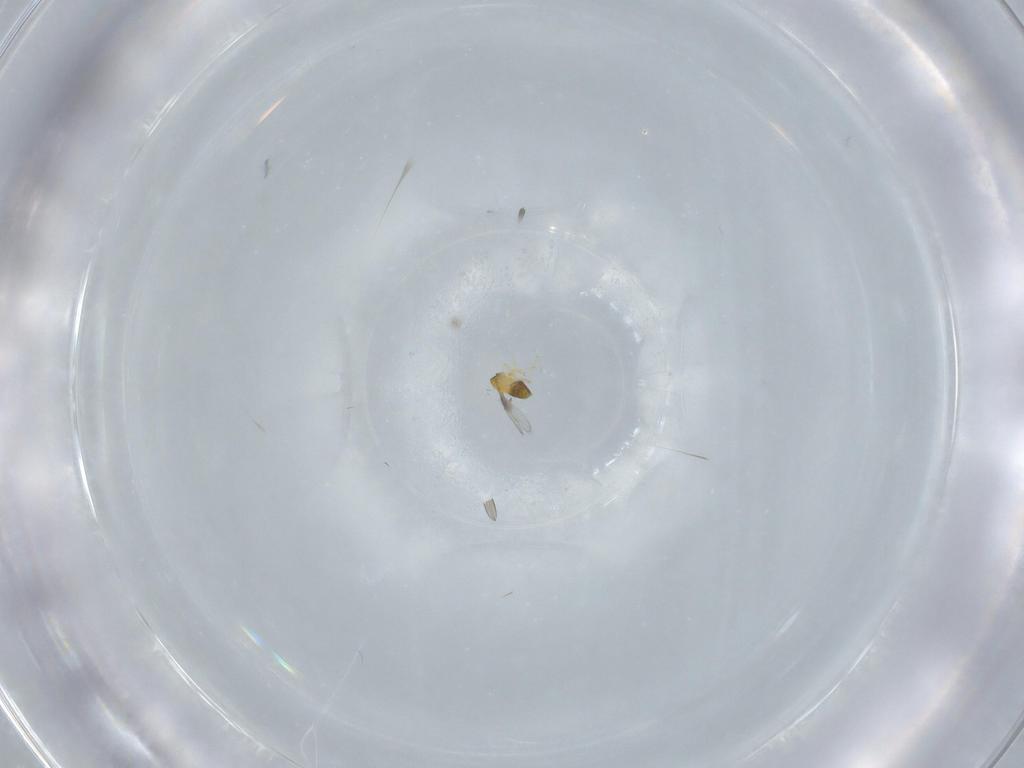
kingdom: Animalia
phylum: Arthropoda
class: Insecta
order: Hymenoptera
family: Trichogrammatidae
